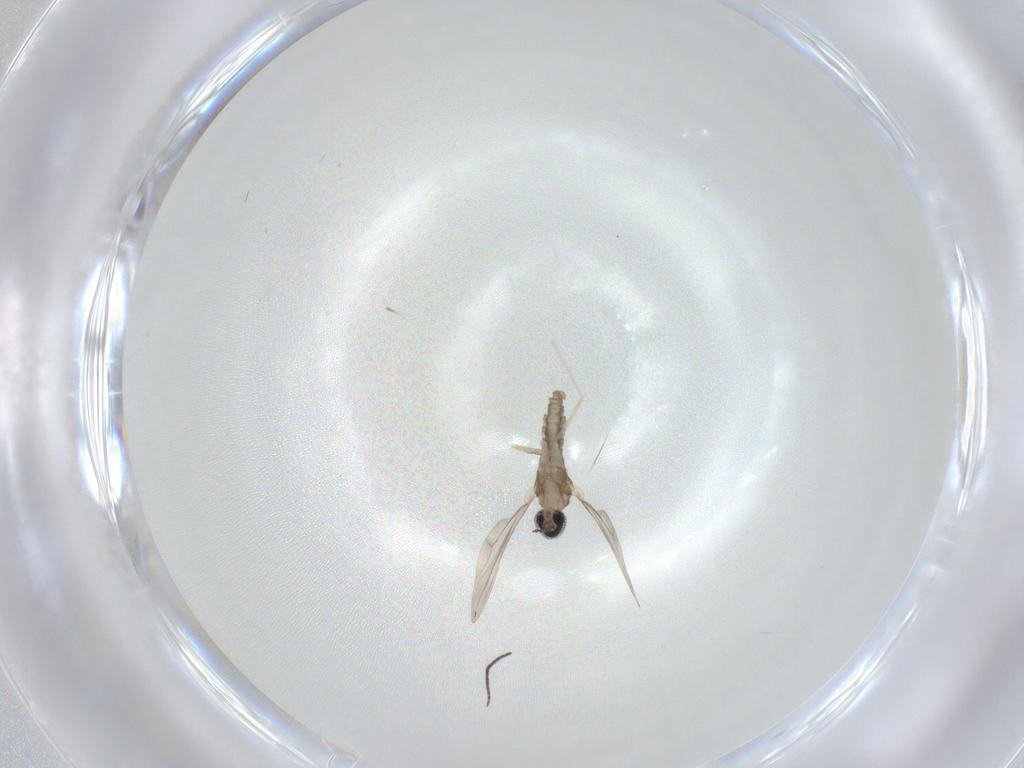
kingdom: Animalia
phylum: Arthropoda
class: Insecta
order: Diptera
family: Cecidomyiidae
